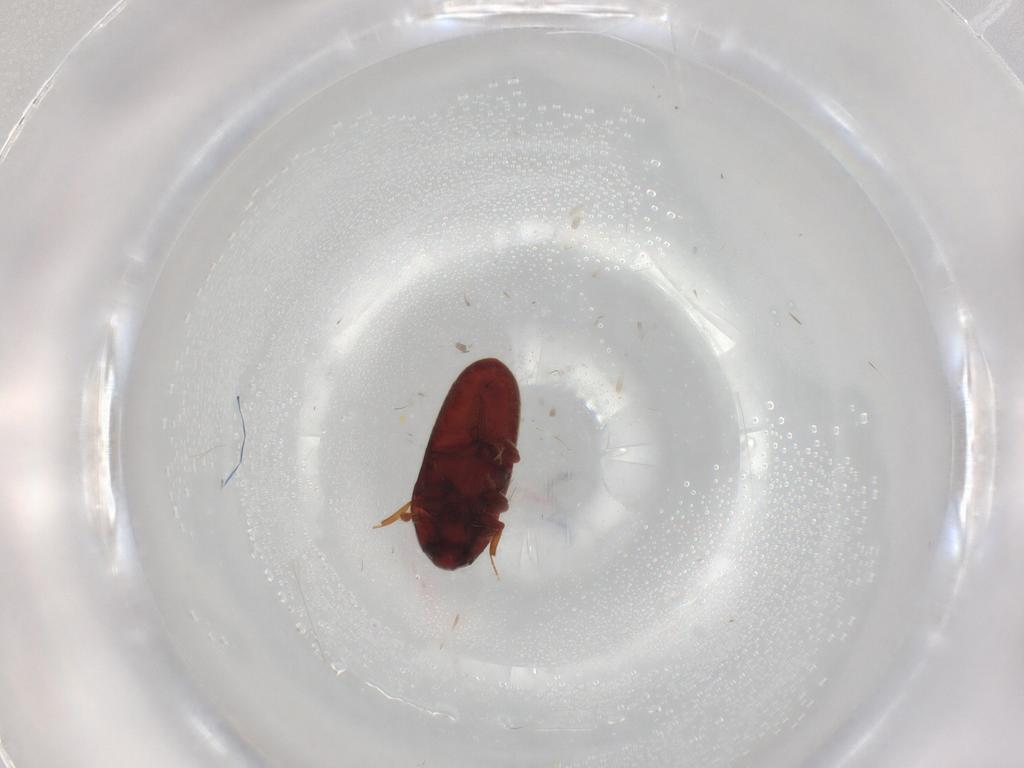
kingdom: Animalia
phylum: Arthropoda
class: Insecta
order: Coleoptera
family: Throscidae
